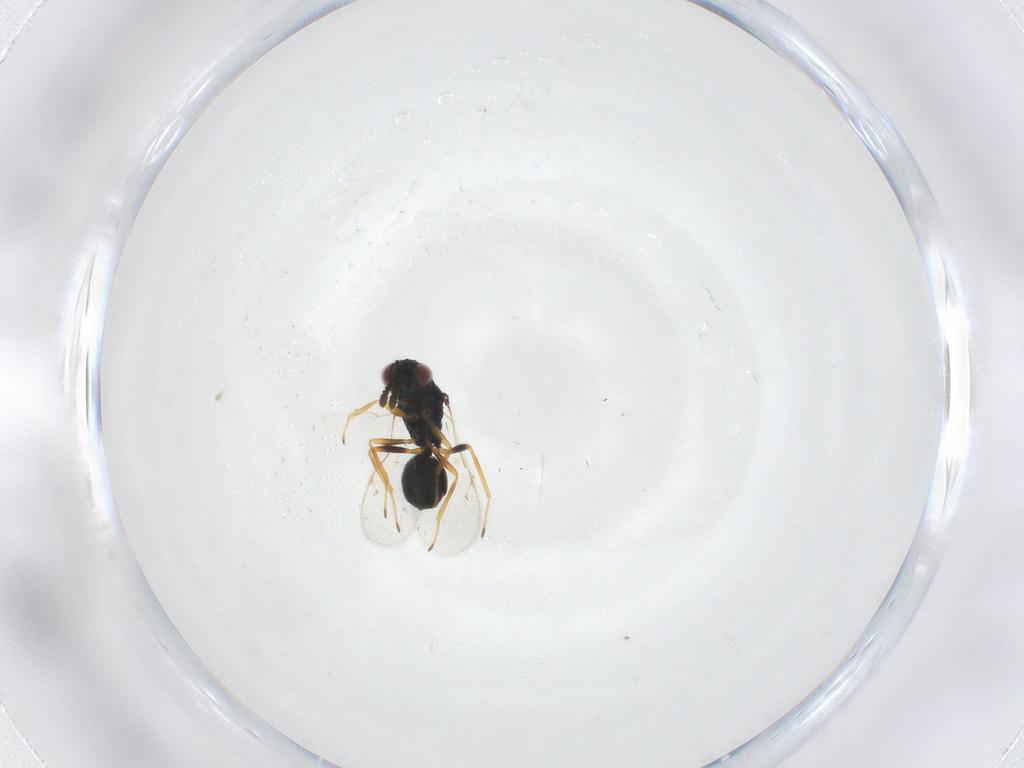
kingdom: Animalia
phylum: Arthropoda
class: Insecta
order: Hymenoptera
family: Chalcidoidea_incertae_sedis
